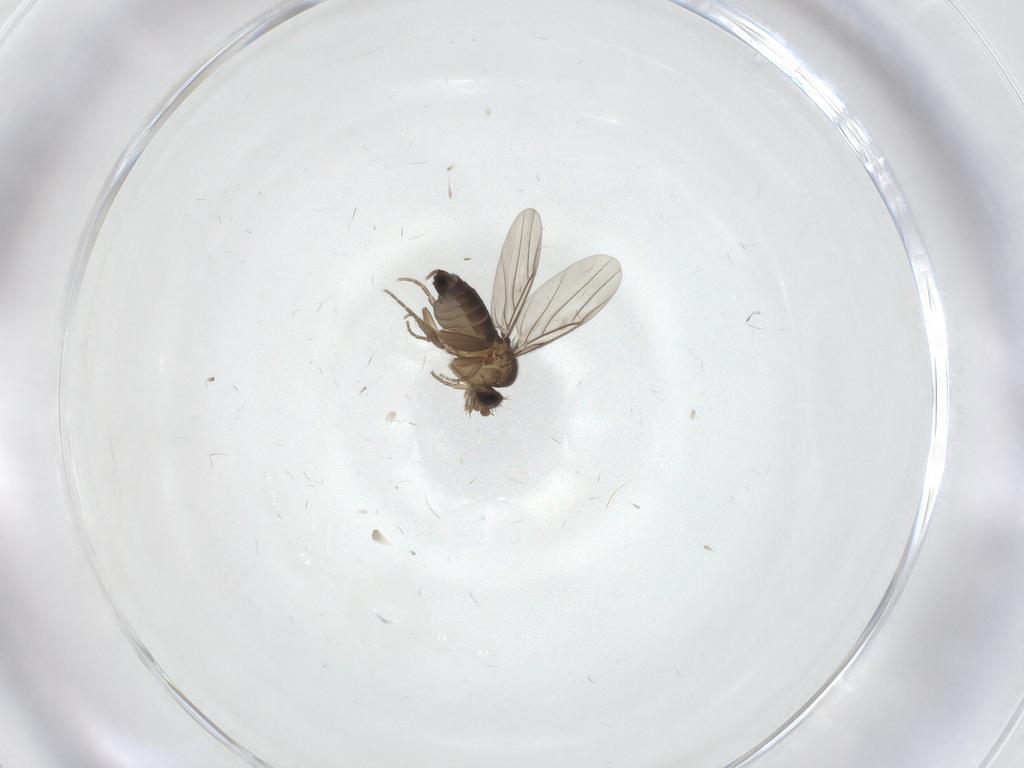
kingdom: Animalia
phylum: Arthropoda
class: Insecta
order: Diptera
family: Phoridae
